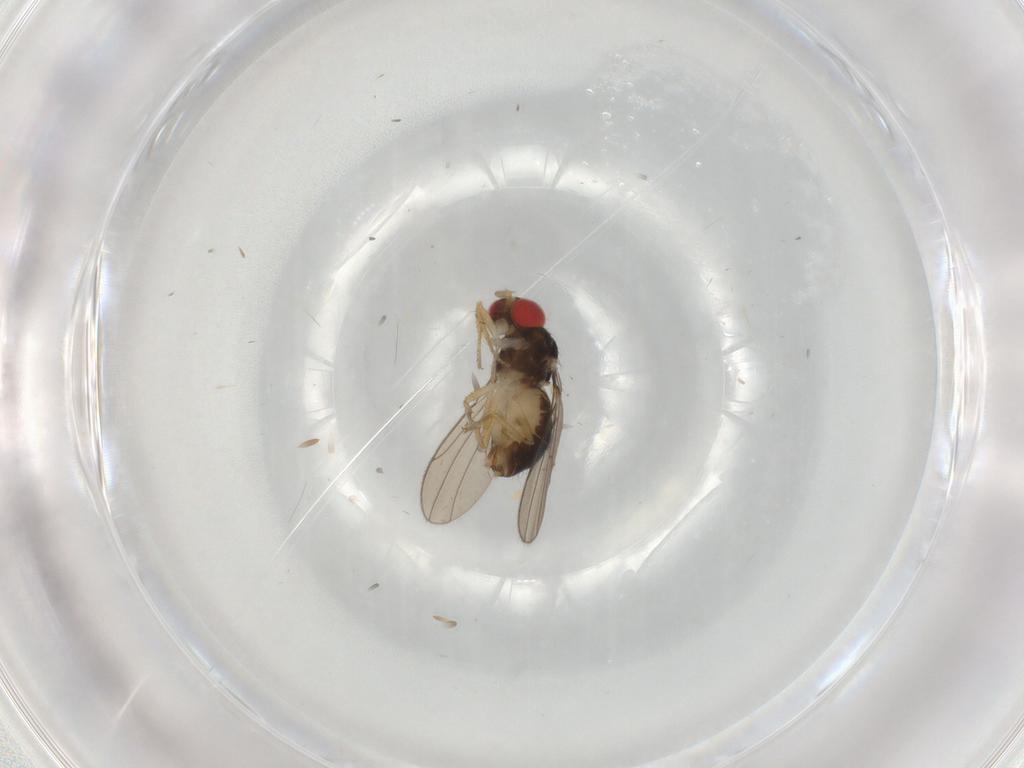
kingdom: Animalia
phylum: Arthropoda
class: Insecta
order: Diptera
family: Drosophilidae
